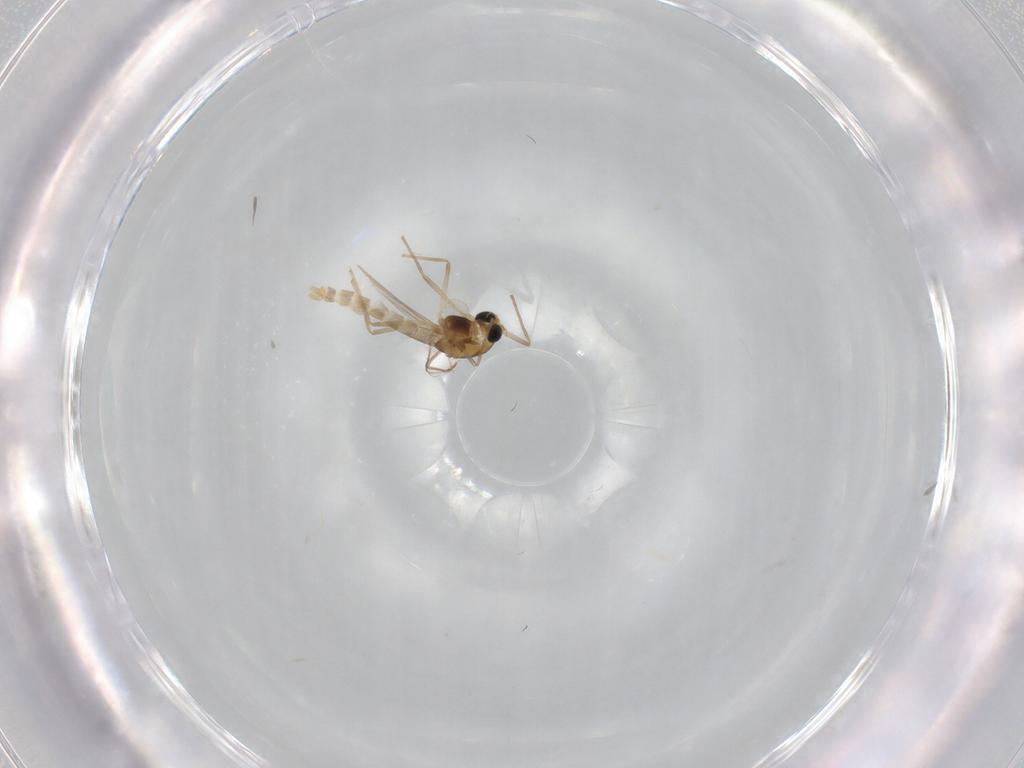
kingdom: Animalia
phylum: Arthropoda
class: Insecta
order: Diptera
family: Chironomidae
